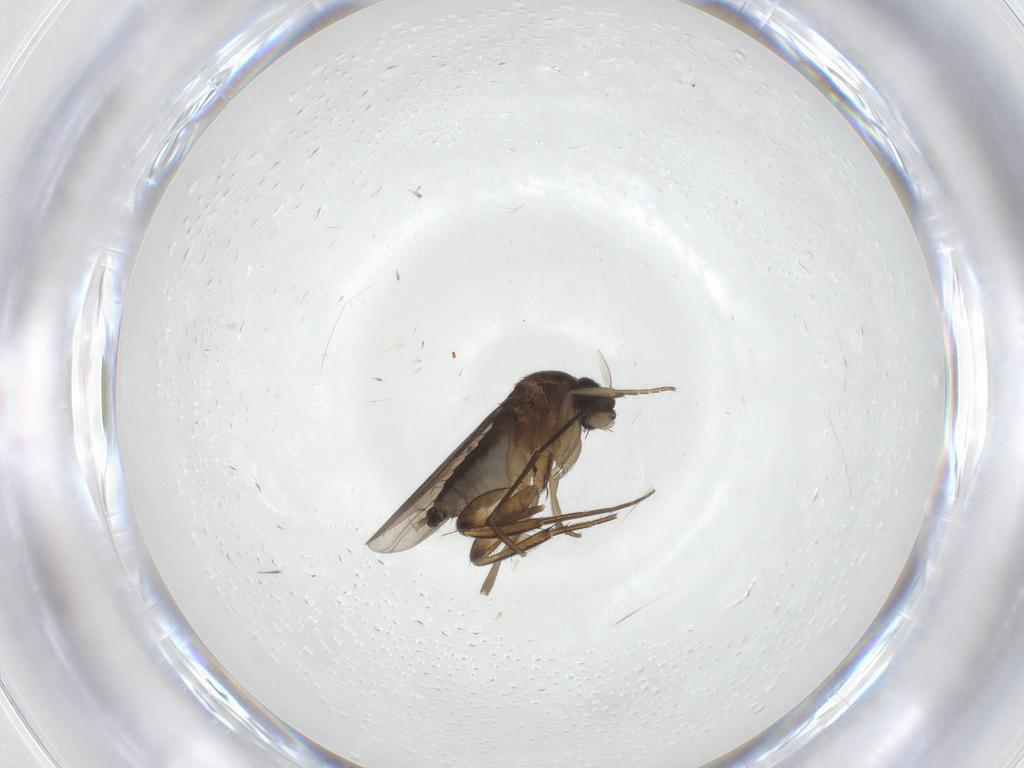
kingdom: Animalia
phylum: Arthropoda
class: Insecta
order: Diptera
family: Phoridae
